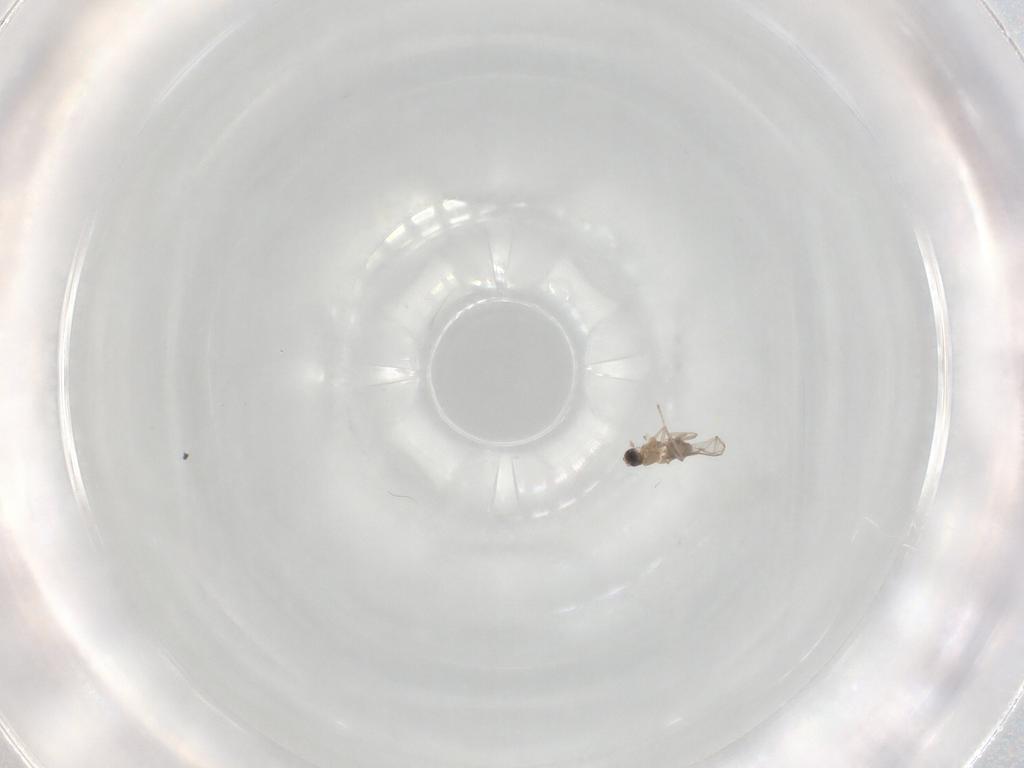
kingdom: Animalia
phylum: Arthropoda
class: Insecta
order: Diptera
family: Cecidomyiidae
